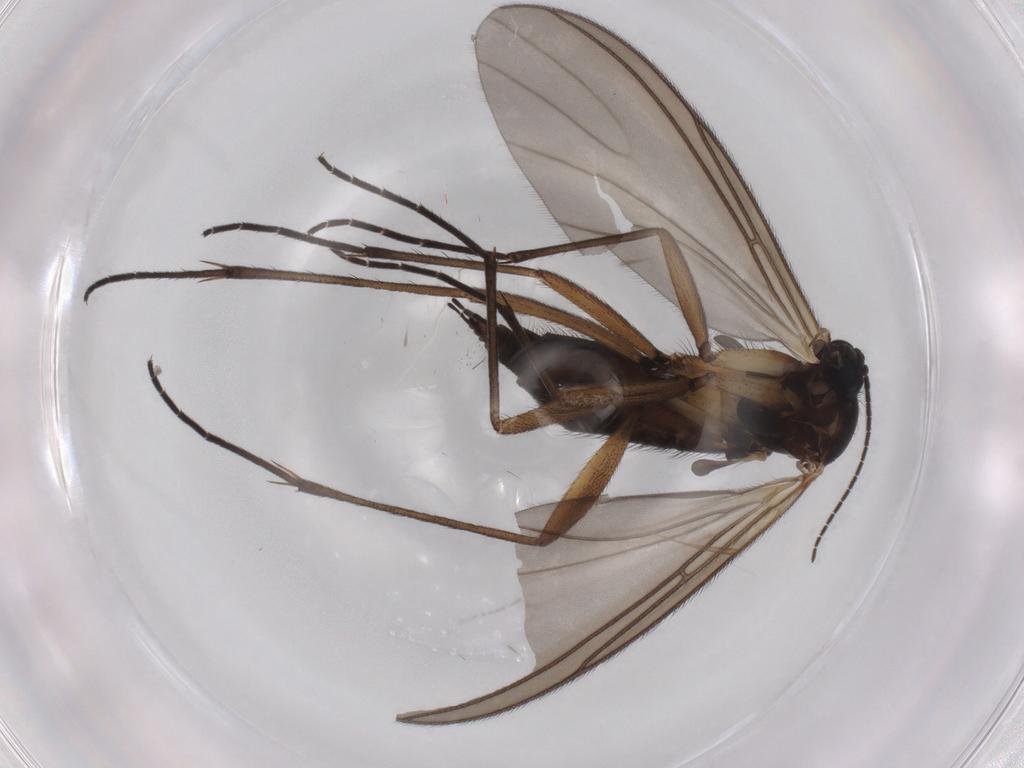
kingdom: Animalia
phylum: Arthropoda
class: Insecta
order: Diptera
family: Sciaridae
